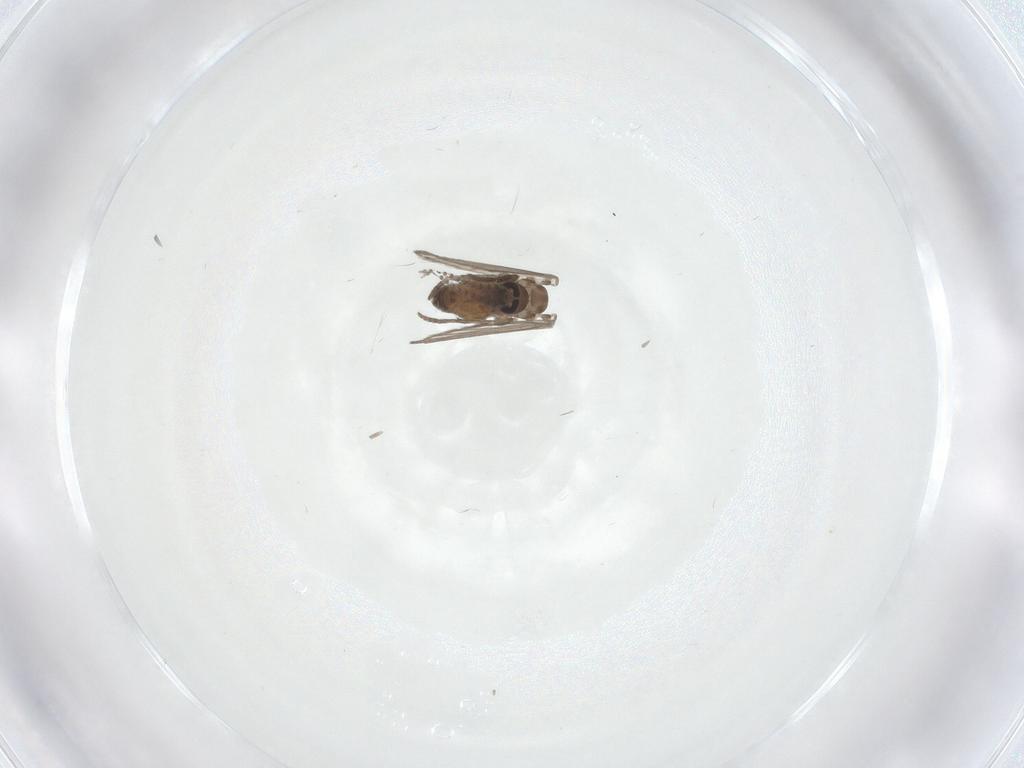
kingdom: Animalia
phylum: Arthropoda
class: Insecta
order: Diptera
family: Psychodidae
